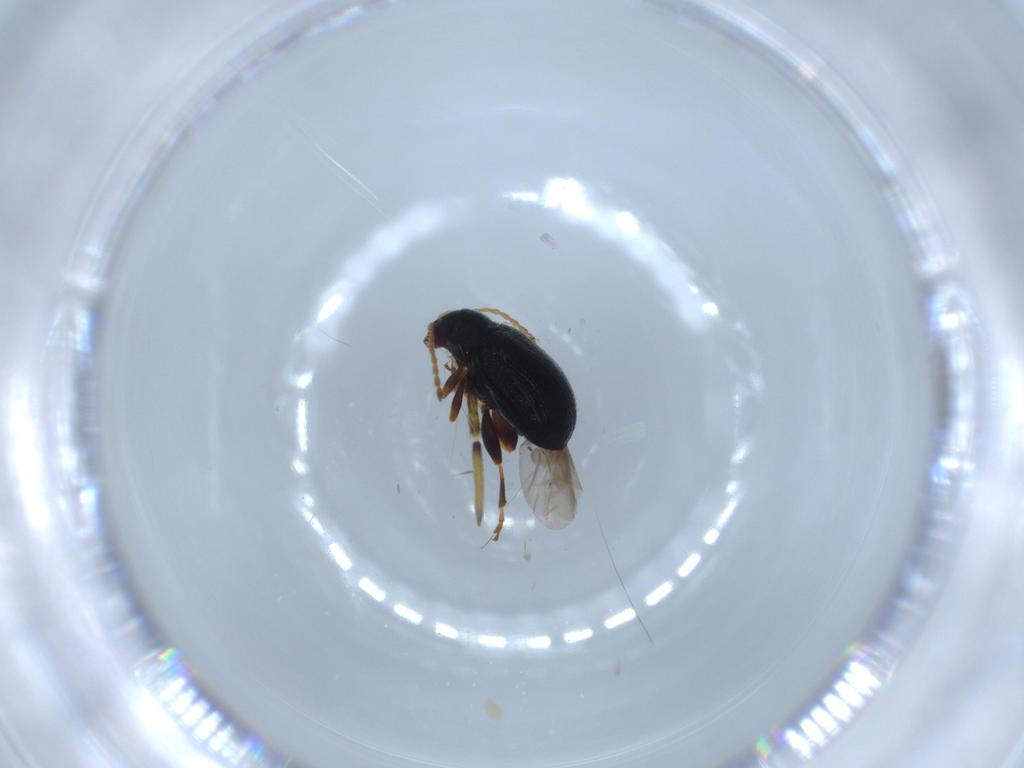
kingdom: Animalia
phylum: Arthropoda
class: Insecta
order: Coleoptera
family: Chrysomelidae
